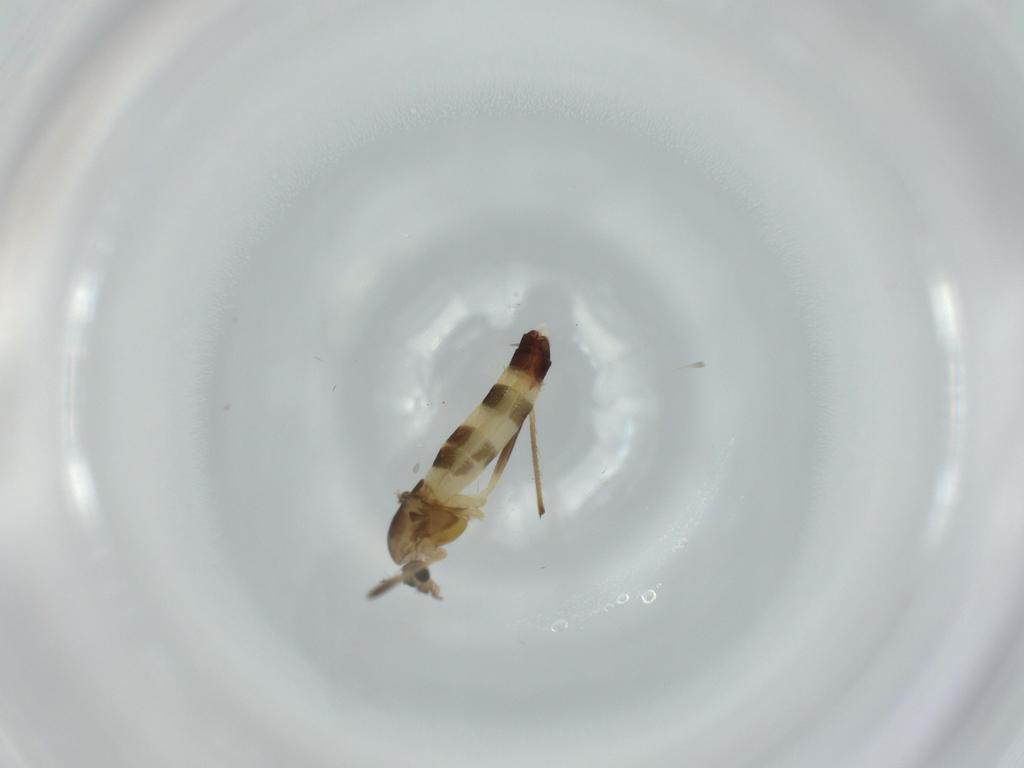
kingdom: Animalia
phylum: Arthropoda
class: Insecta
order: Diptera
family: Chironomidae
